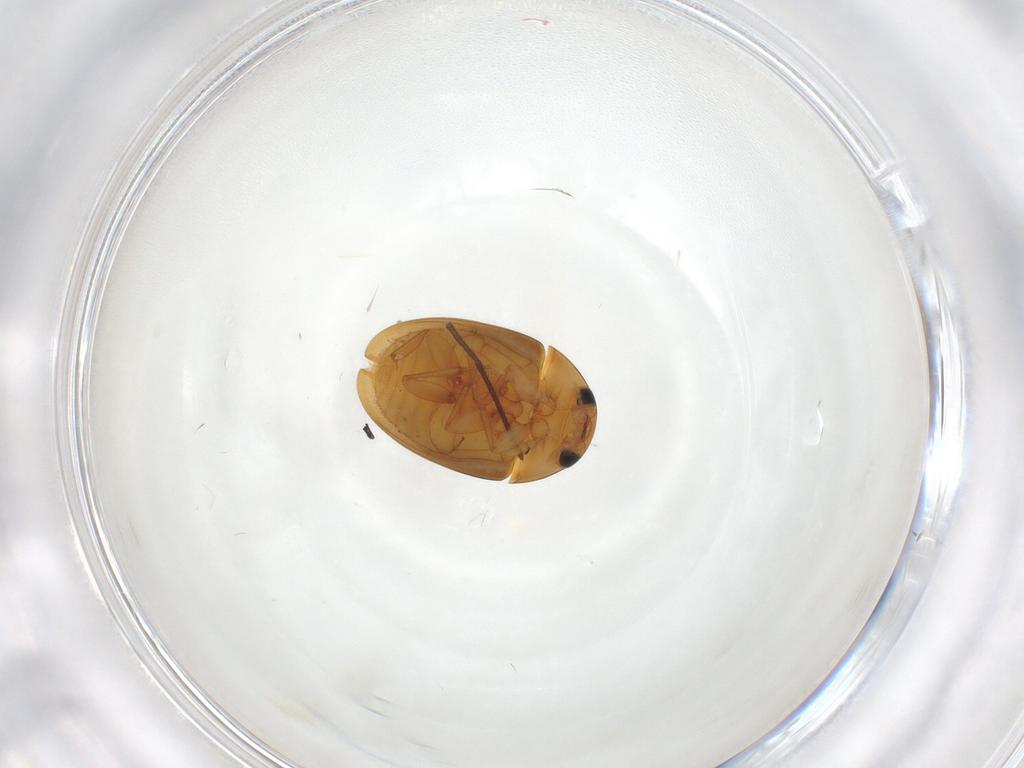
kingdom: Animalia
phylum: Arthropoda
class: Insecta
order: Coleoptera
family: Phalacridae
